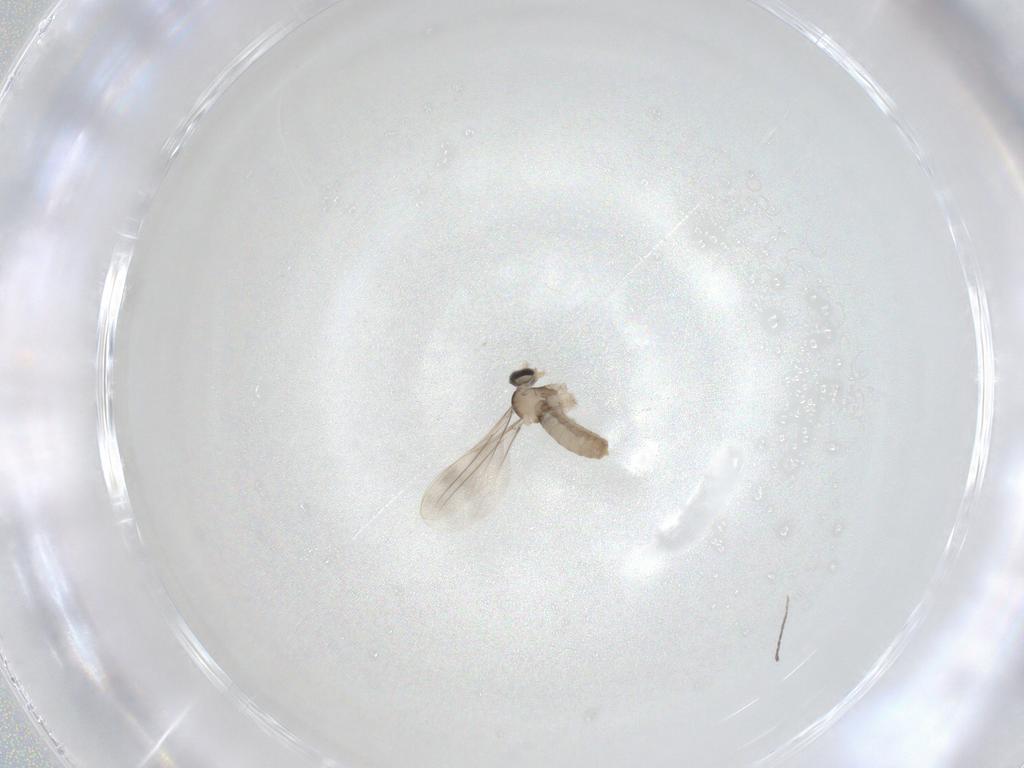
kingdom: Animalia
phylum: Arthropoda
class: Insecta
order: Diptera
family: Cecidomyiidae
